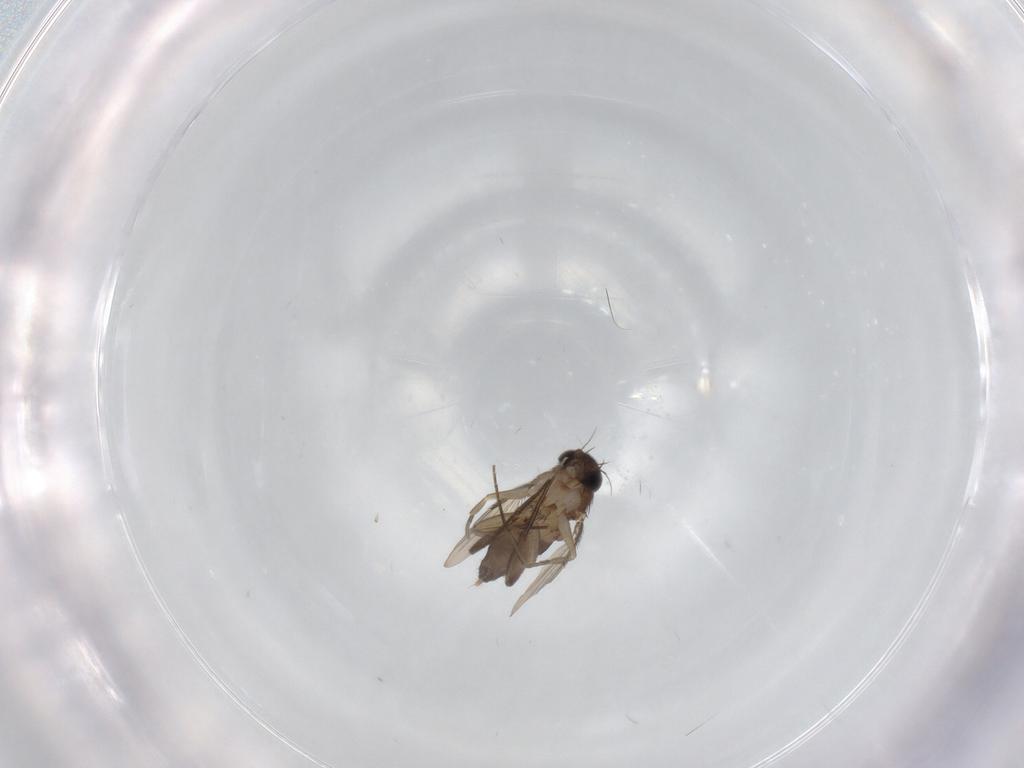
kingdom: Animalia
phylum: Arthropoda
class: Insecta
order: Diptera
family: Phoridae
